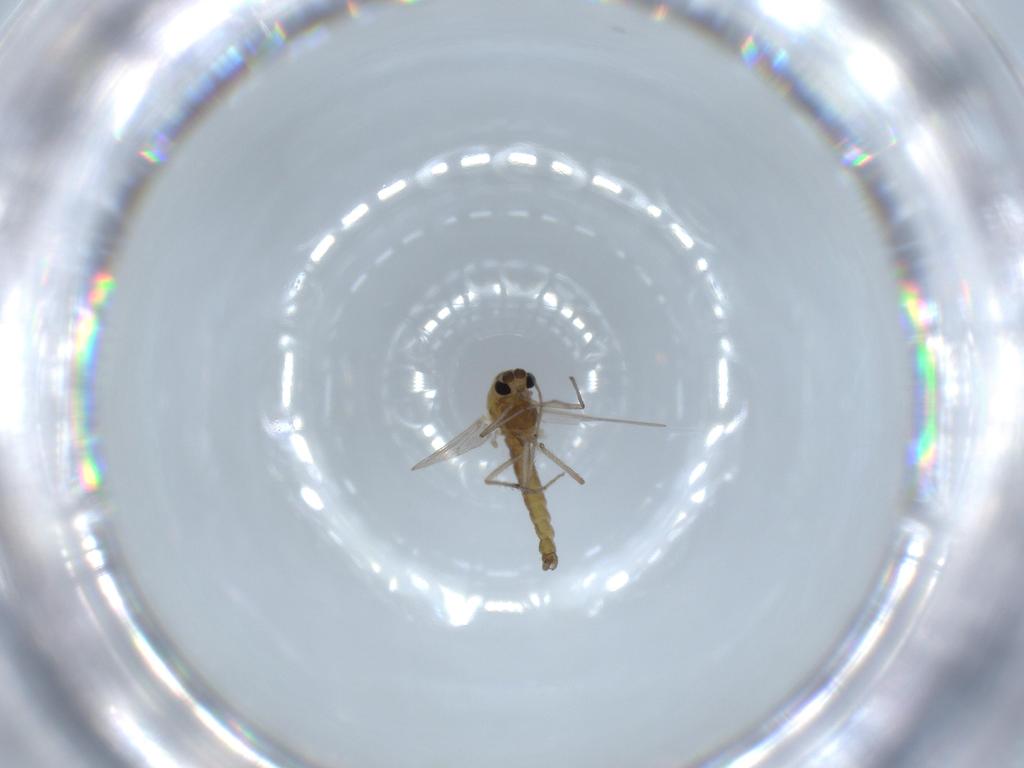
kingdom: Animalia
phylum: Arthropoda
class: Insecta
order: Diptera
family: Chironomidae
